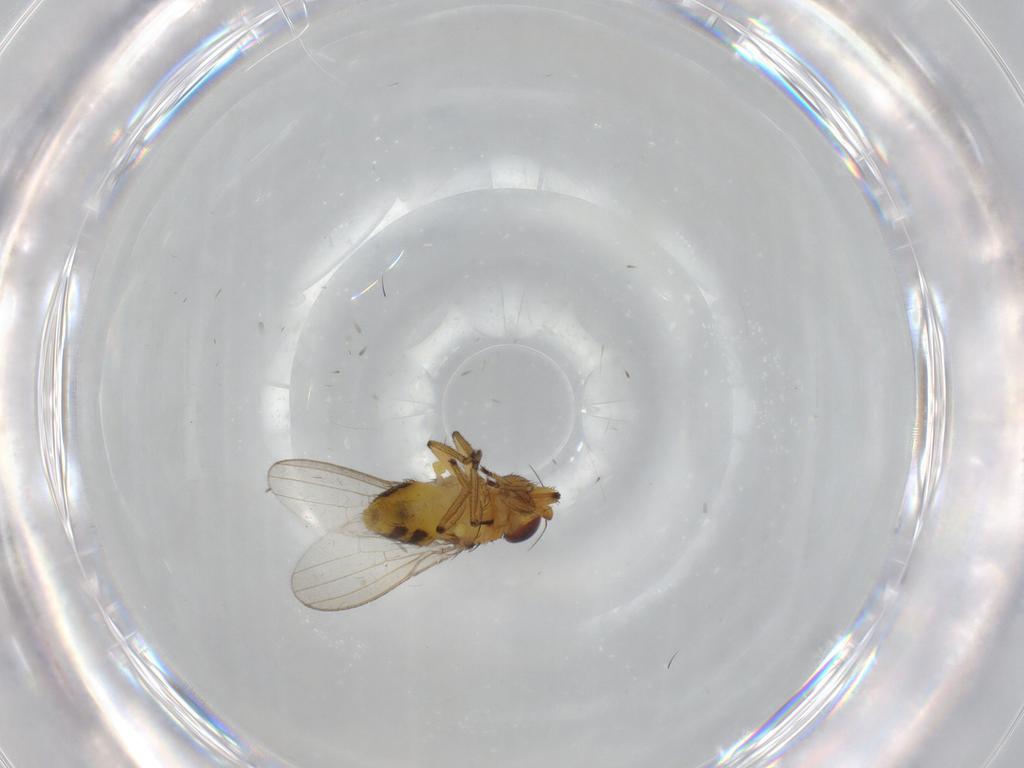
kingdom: Animalia
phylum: Arthropoda
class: Insecta
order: Diptera
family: Milichiidae
